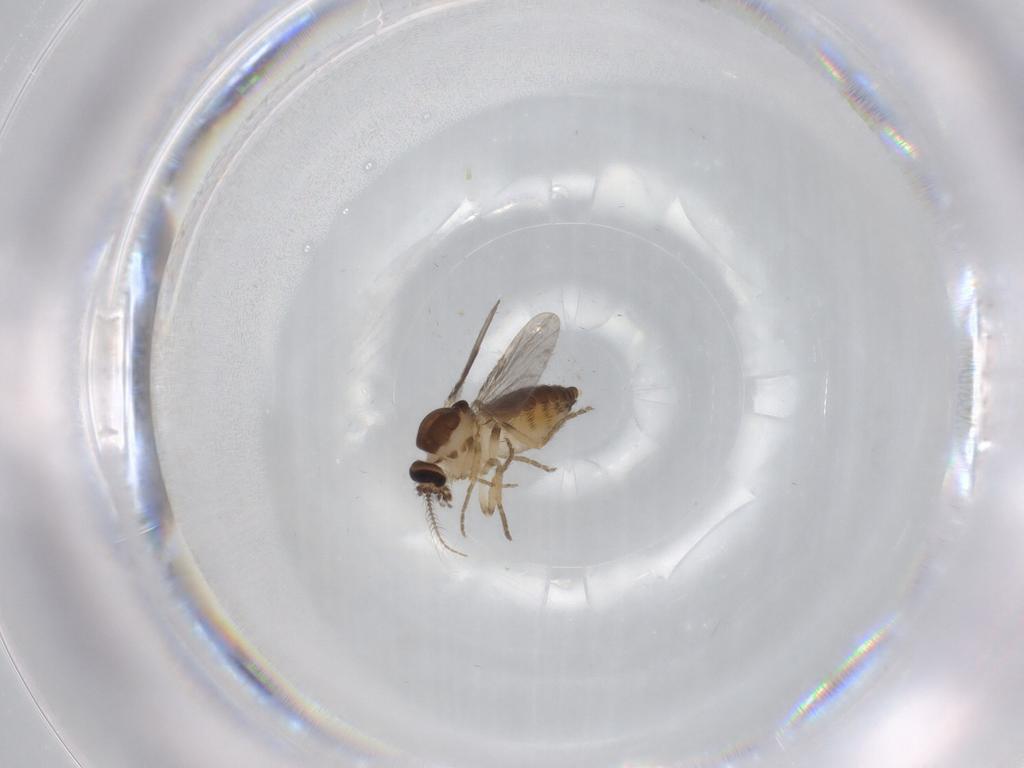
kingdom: Animalia
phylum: Arthropoda
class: Insecta
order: Diptera
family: Ceratopogonidae
